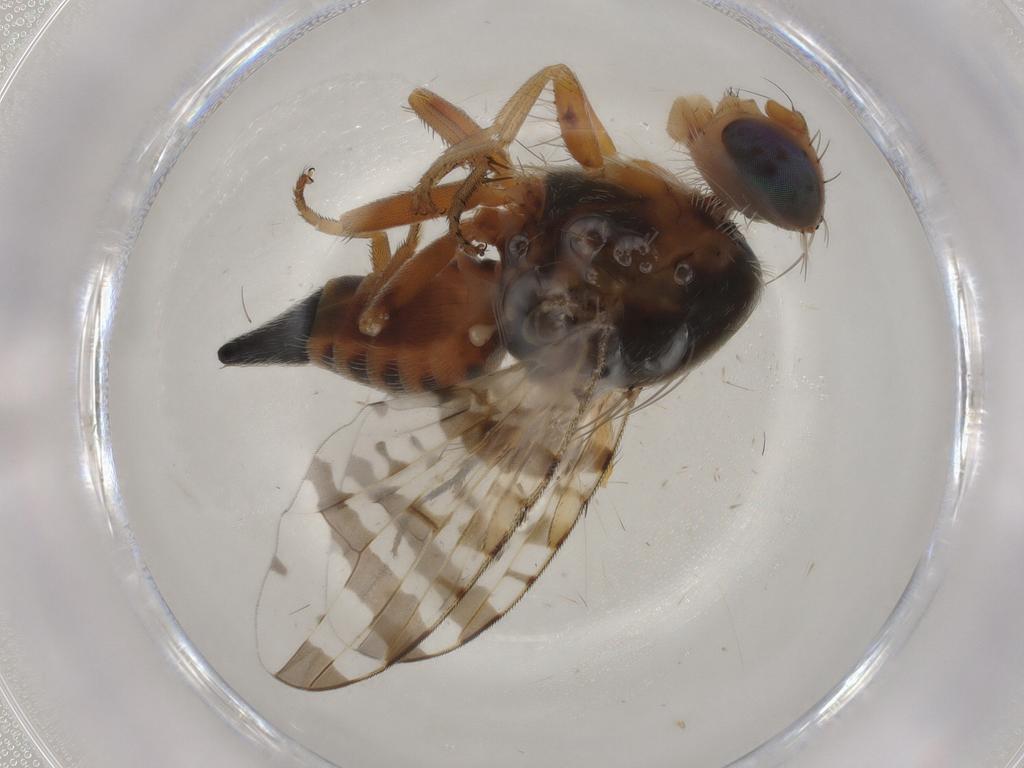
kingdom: Animalia
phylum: Arthropoda
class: Insecta
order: Diptera
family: Tephritidae
